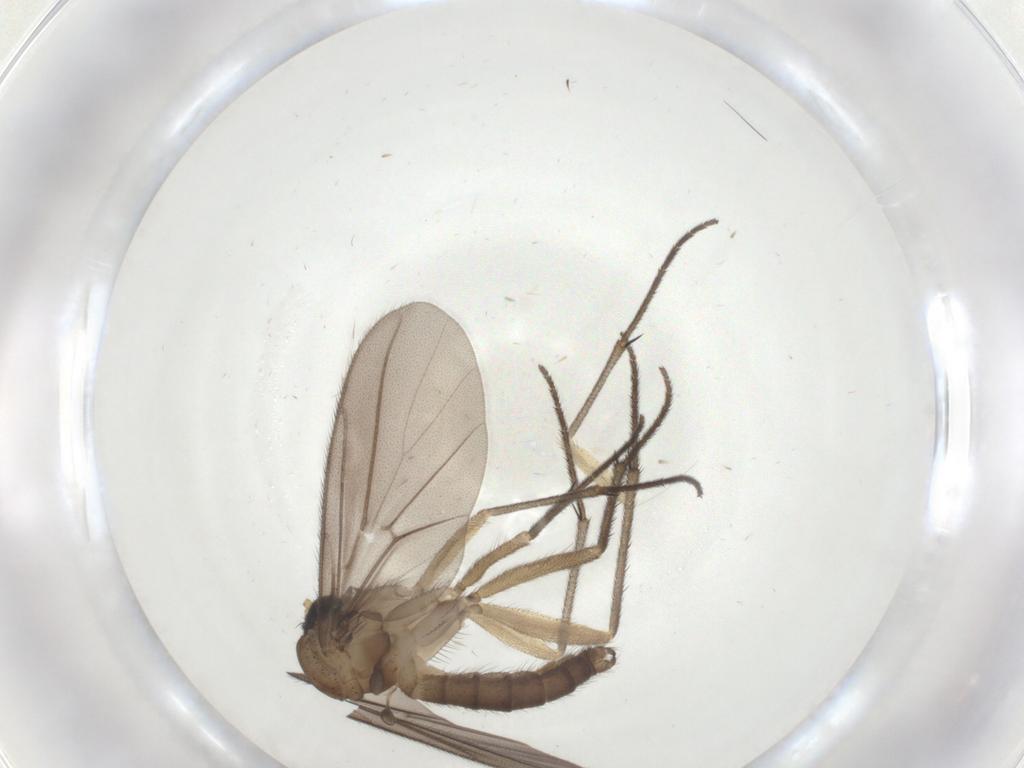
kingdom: Animalia
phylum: Arthropoda
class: Insecta
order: Diptera
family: Diadocidiidae
